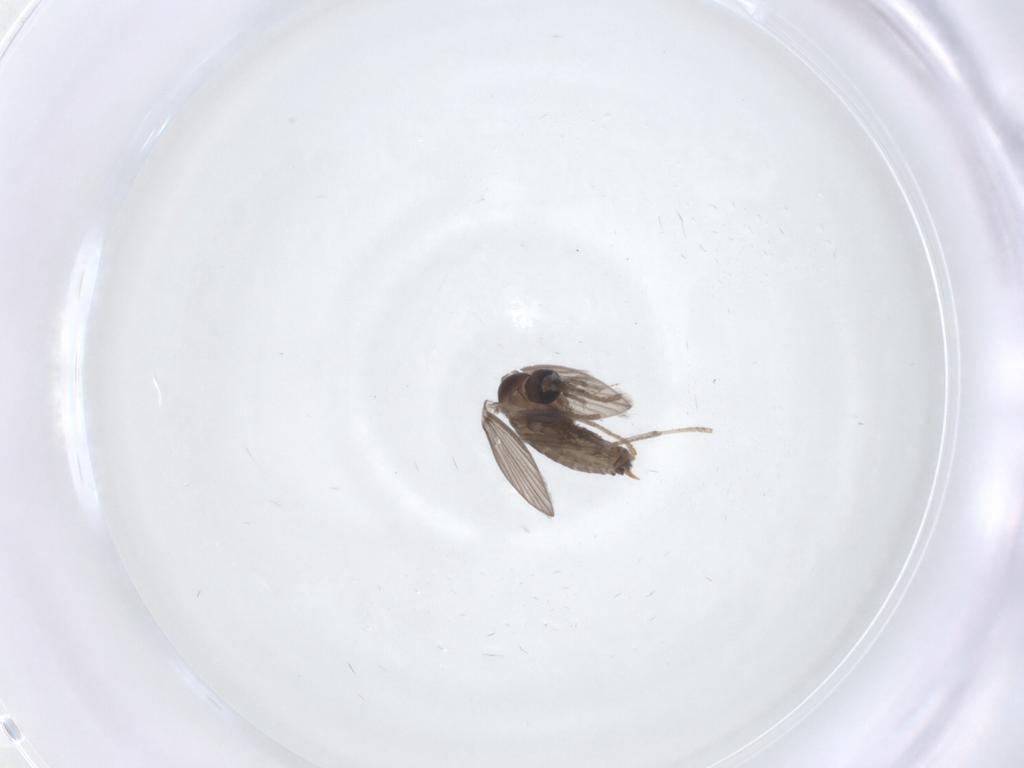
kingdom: Animalia
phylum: Arthropoda
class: Insecta
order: Diptera
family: Psychodidae
